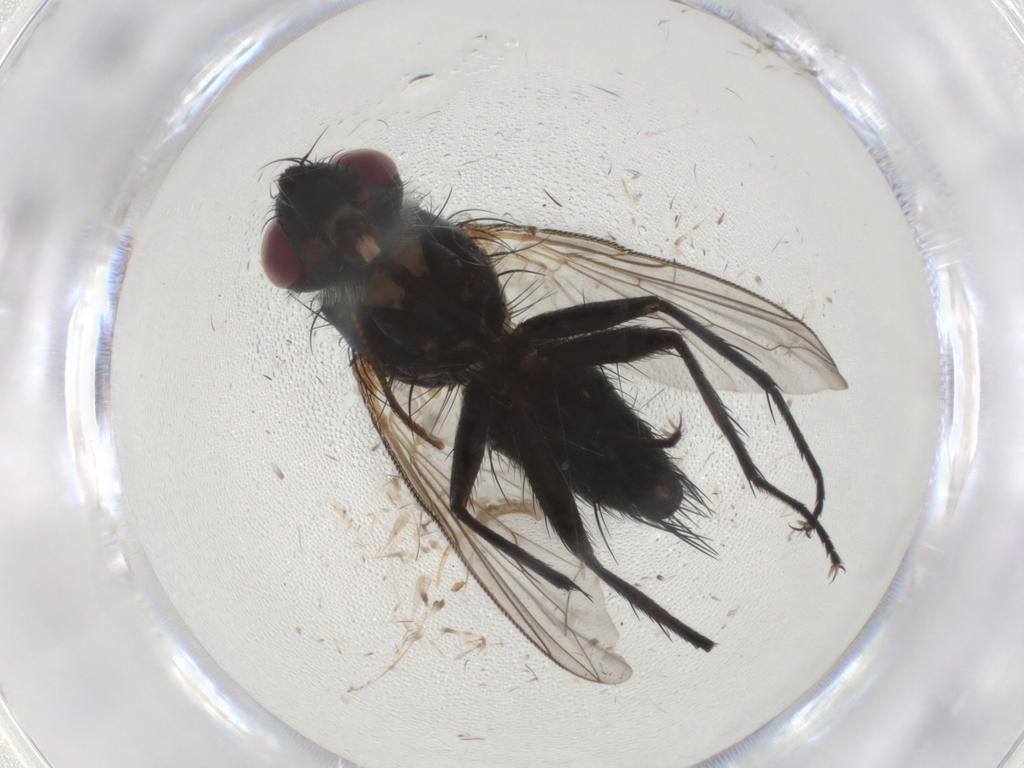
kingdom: Animalia
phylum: Arthropoda
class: Insecta
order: Diptera
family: Tachinidae
